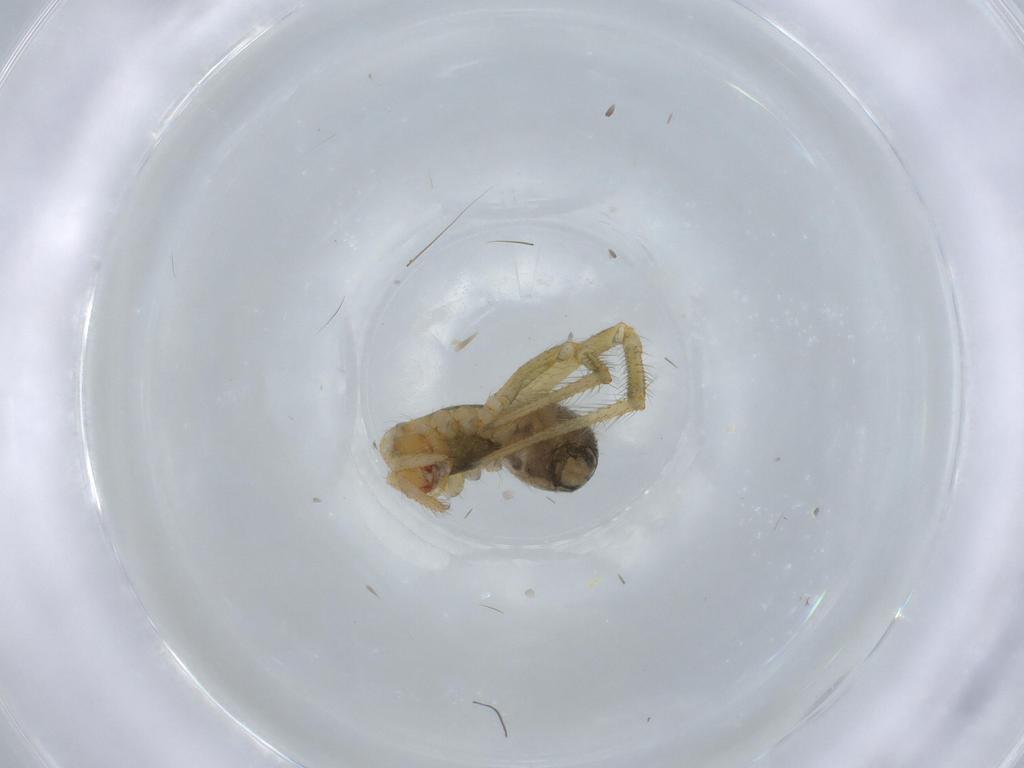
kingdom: Animalia
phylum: Arthropoda
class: Arachnida
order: Araneae
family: Nesticidae
